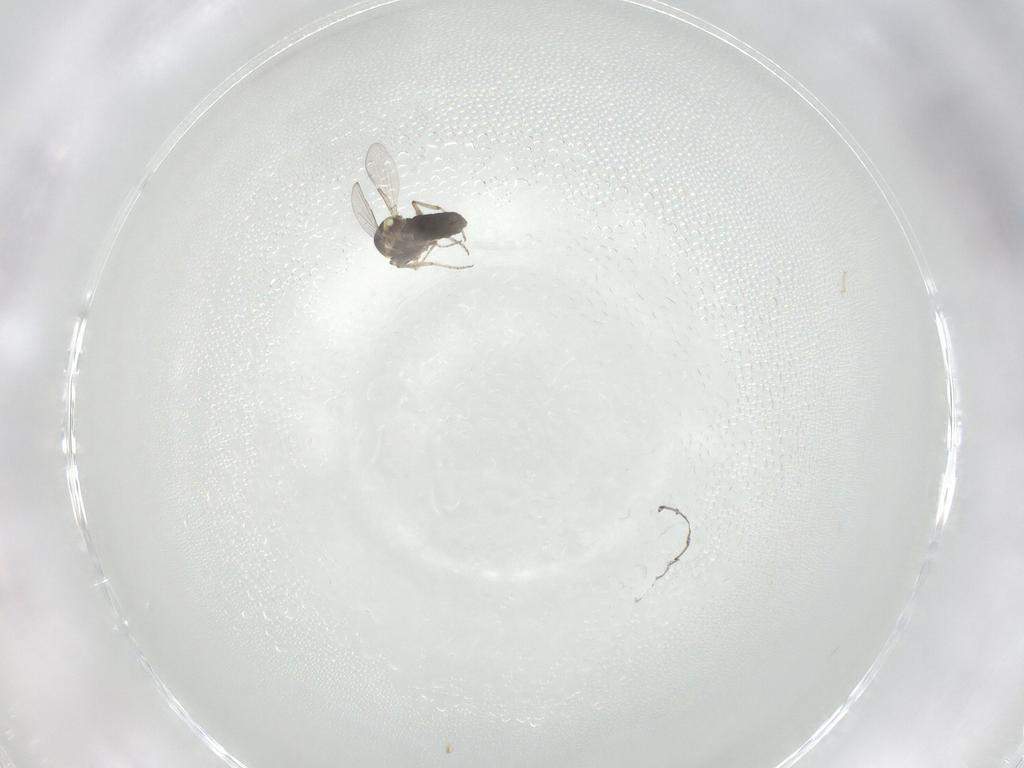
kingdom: Animalia
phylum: Arthropoda
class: Insecta
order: Diptera
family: Ceratopogonidae
